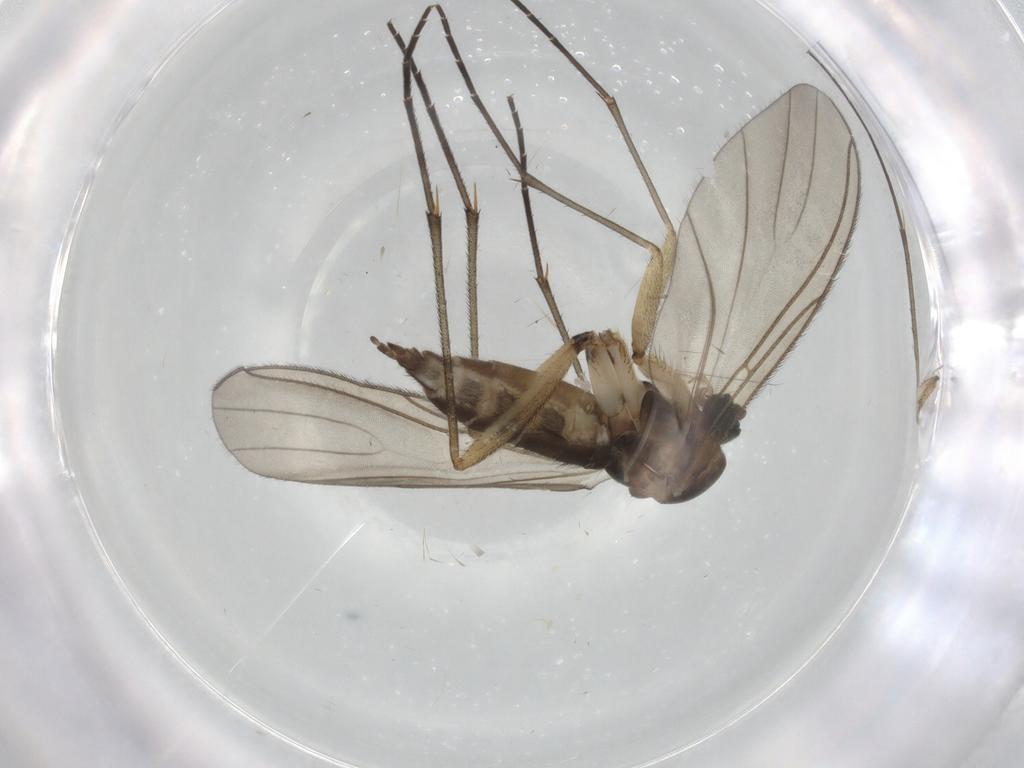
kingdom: Animalia
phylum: Arthropoda
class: Insecta
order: Diptera
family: Sciaridae
